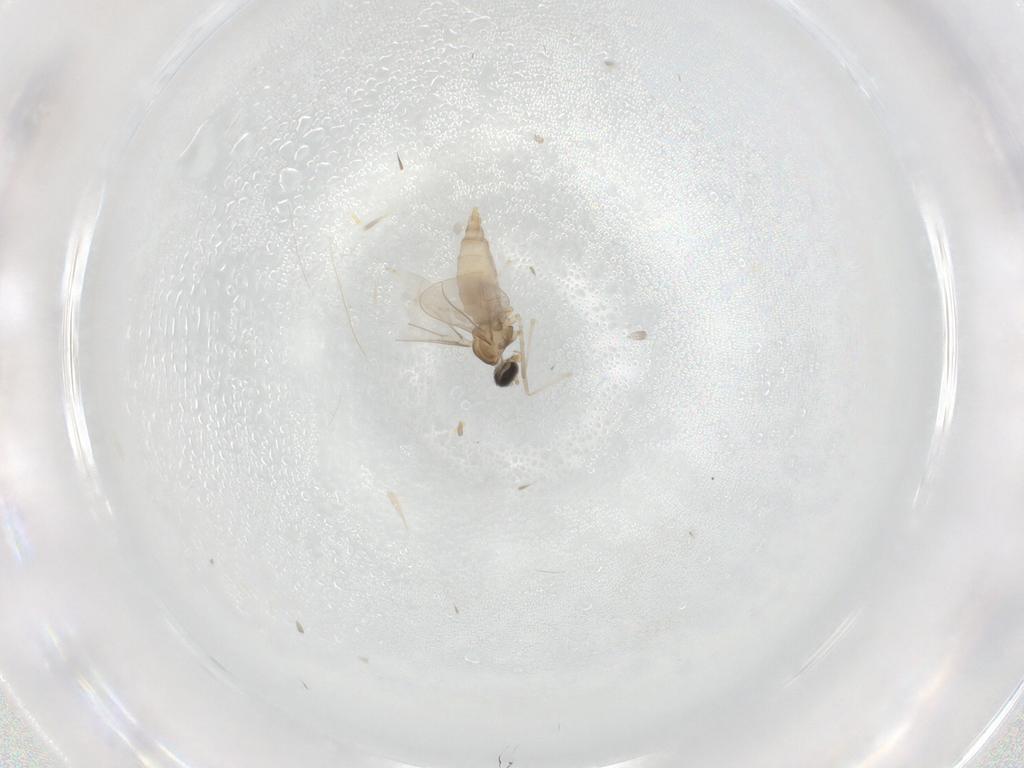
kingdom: Animalia
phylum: Arthropoda
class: Insecta
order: Diptera
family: Cecidomyiidae
